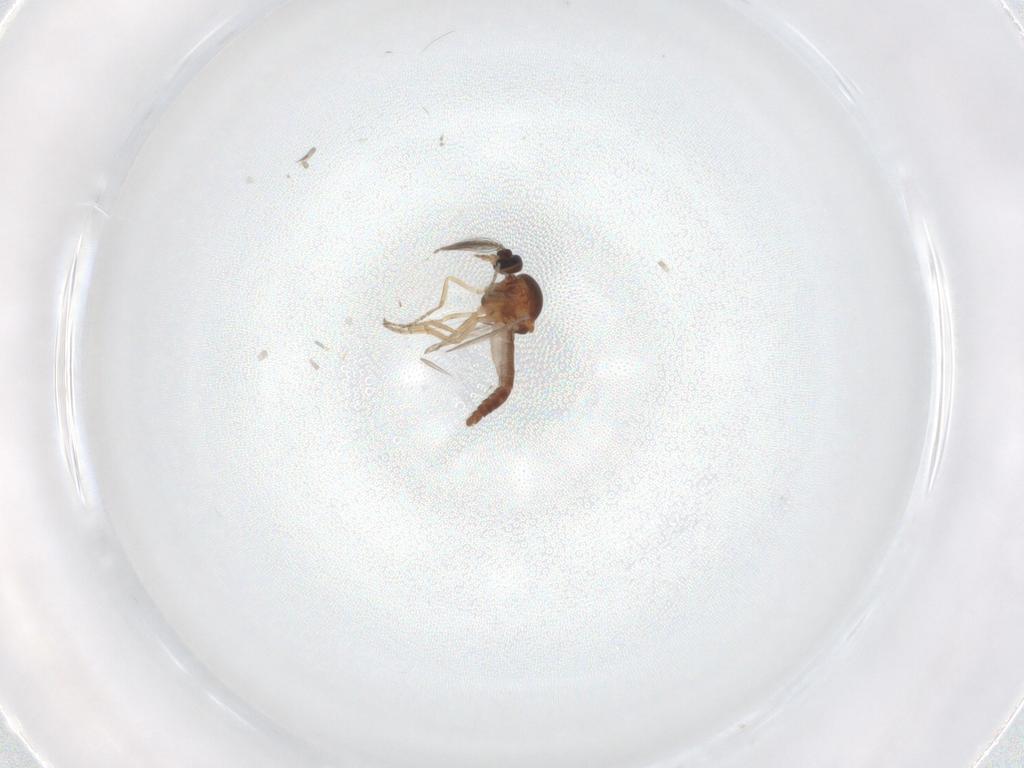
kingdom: Animalia
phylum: Arthropoda
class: Insecta
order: Diptera
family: Ceratopogonidae
